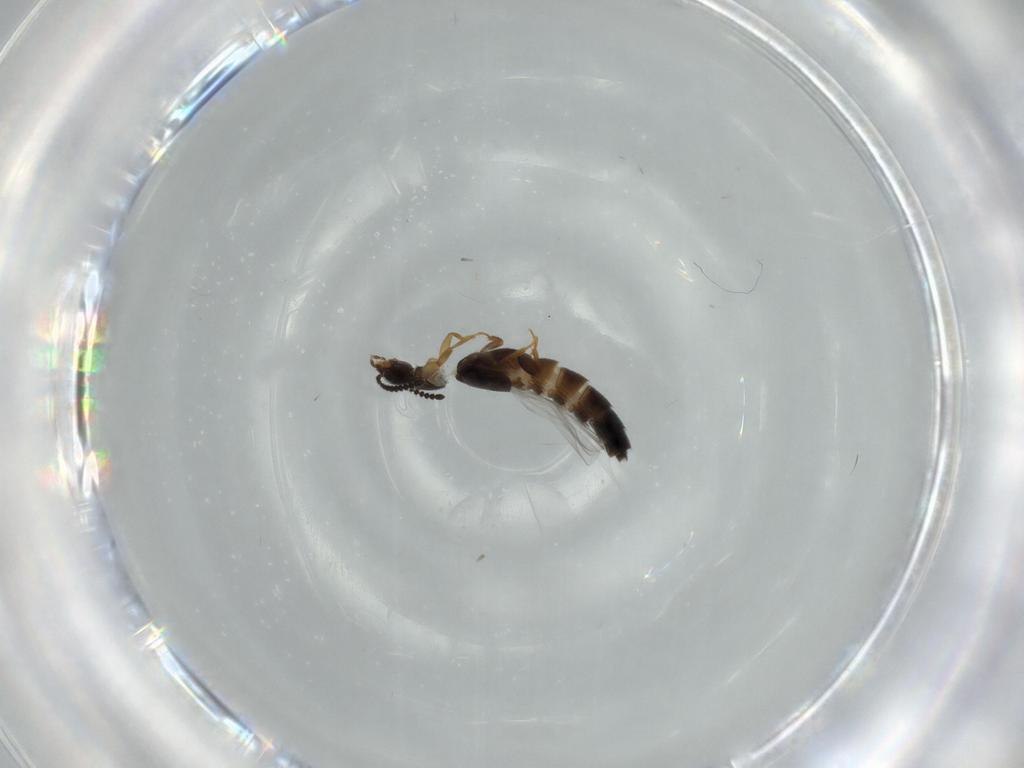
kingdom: Animalia
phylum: Arthropoda
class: Insecta
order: Coleoptera
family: Staphylinidae
